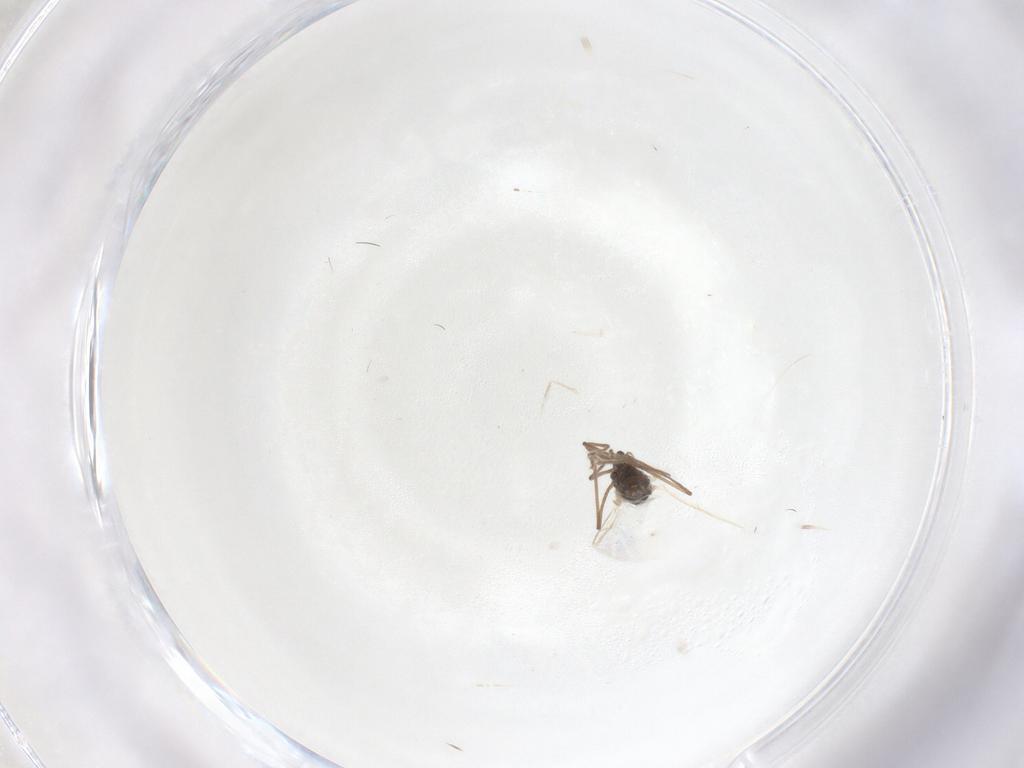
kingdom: Animalia
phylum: Arthropoda
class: Insecta
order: Diptera
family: Cecidomyiidae
